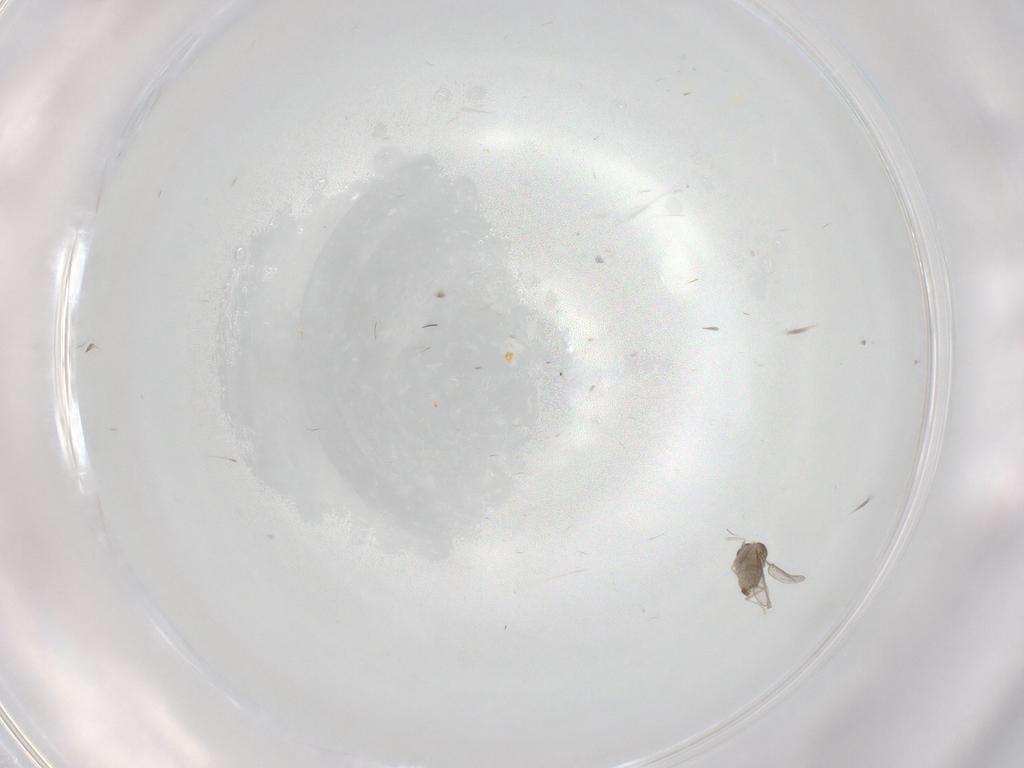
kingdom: Animalia
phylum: Arthropoda
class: Insecta
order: Diptera
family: Cecidomyiidae
